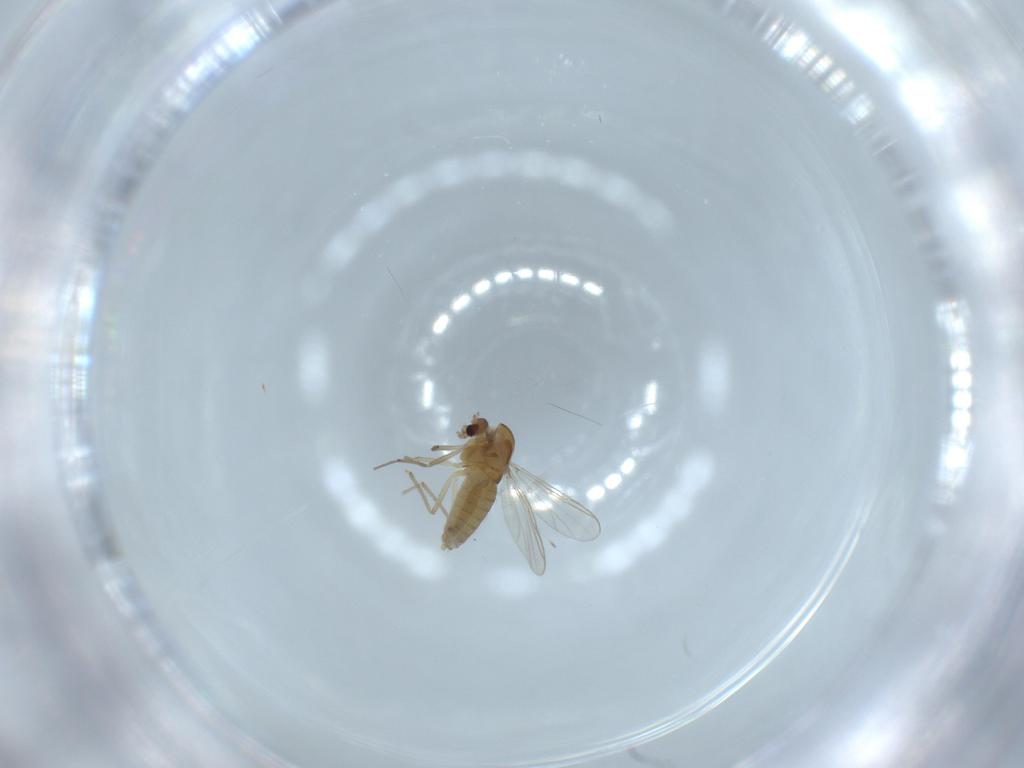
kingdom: Animalia
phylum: Arthropoda
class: Insecta
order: Diptera
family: Chironomidae
